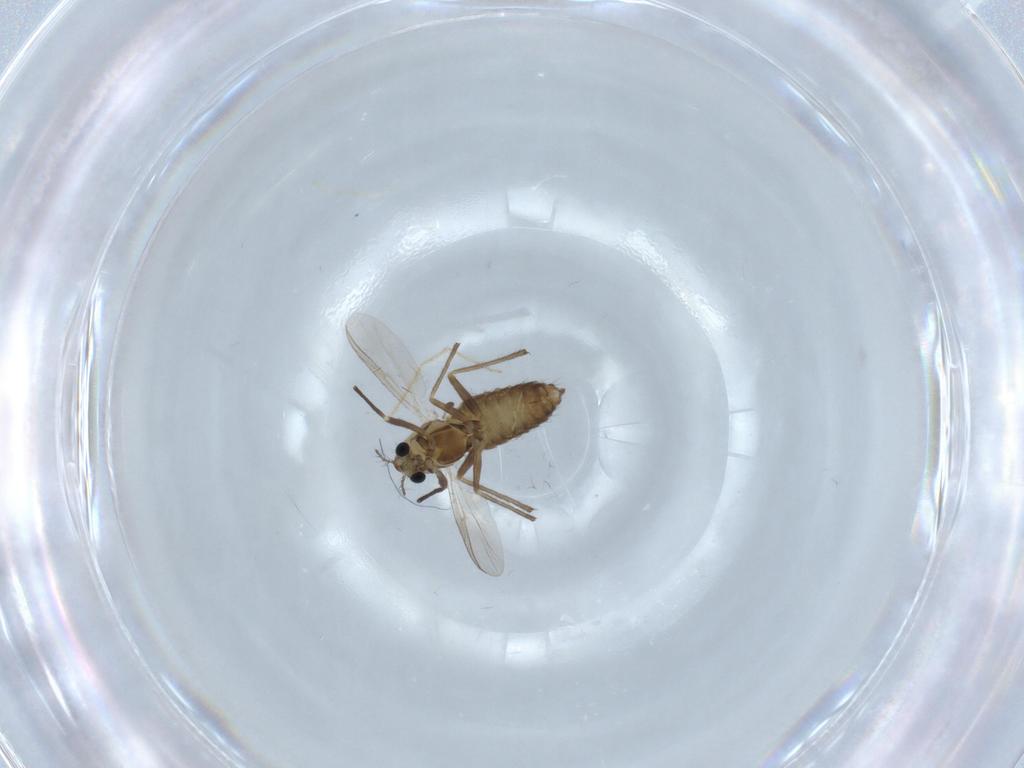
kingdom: Animalia
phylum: Arthropoda
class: Insecta
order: Diptera
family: Chironomidae
